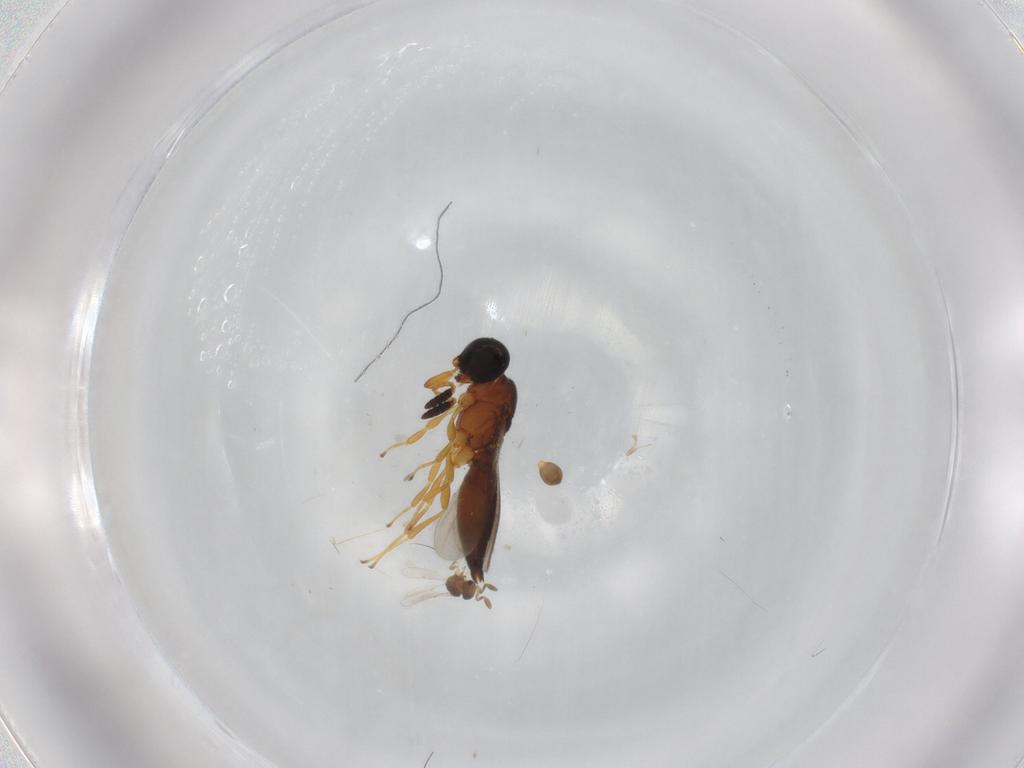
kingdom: Animalia
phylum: Arthropoda
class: Insecta
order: Hymenoptera
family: Scelionidae
